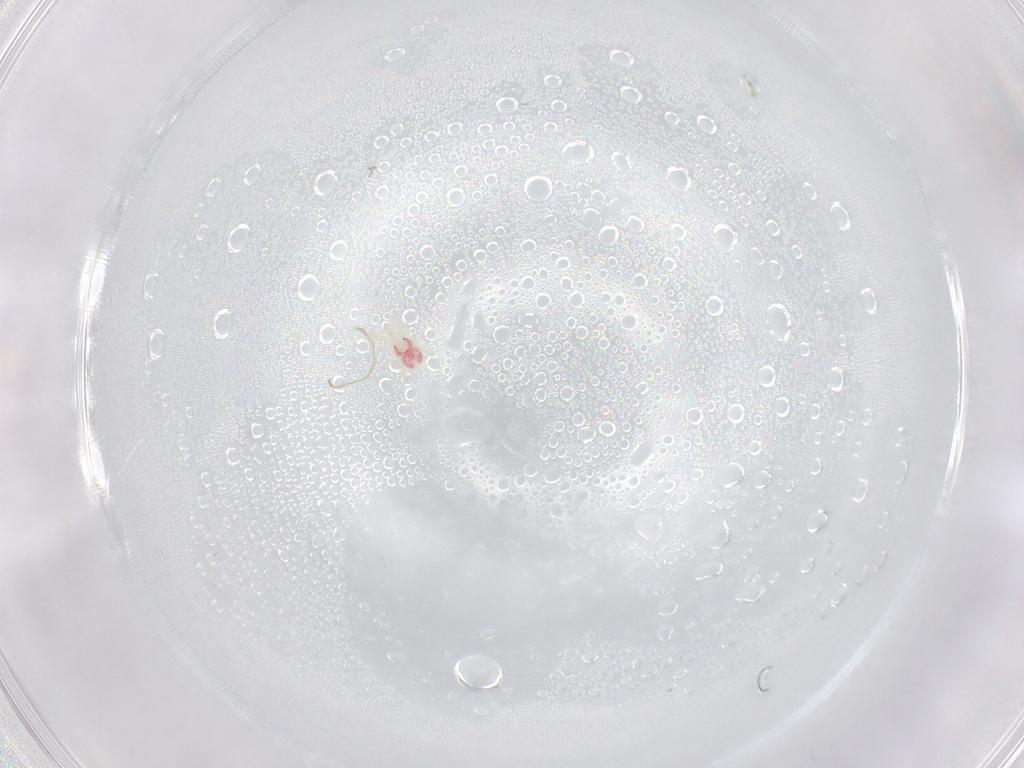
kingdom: Animalia
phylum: Arthropoda
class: Arachnida
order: Mesostigmata
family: Phytoseiidae
